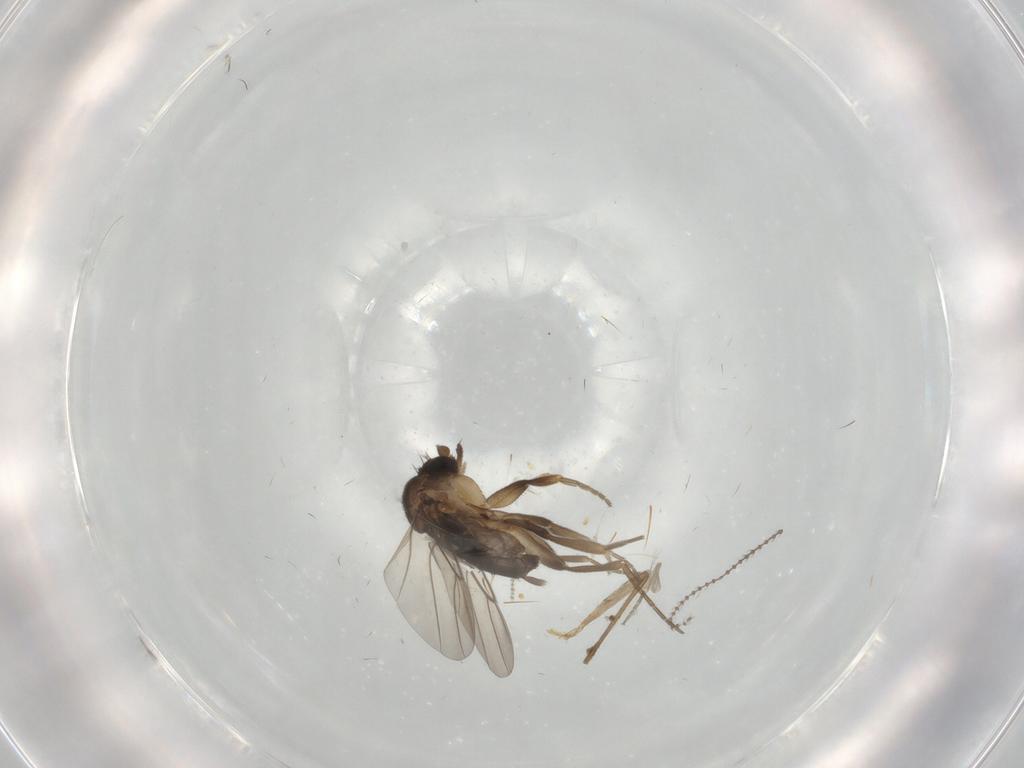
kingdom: Animalia
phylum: Arthropoda
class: Insecta
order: Diptera
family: Phoridae
